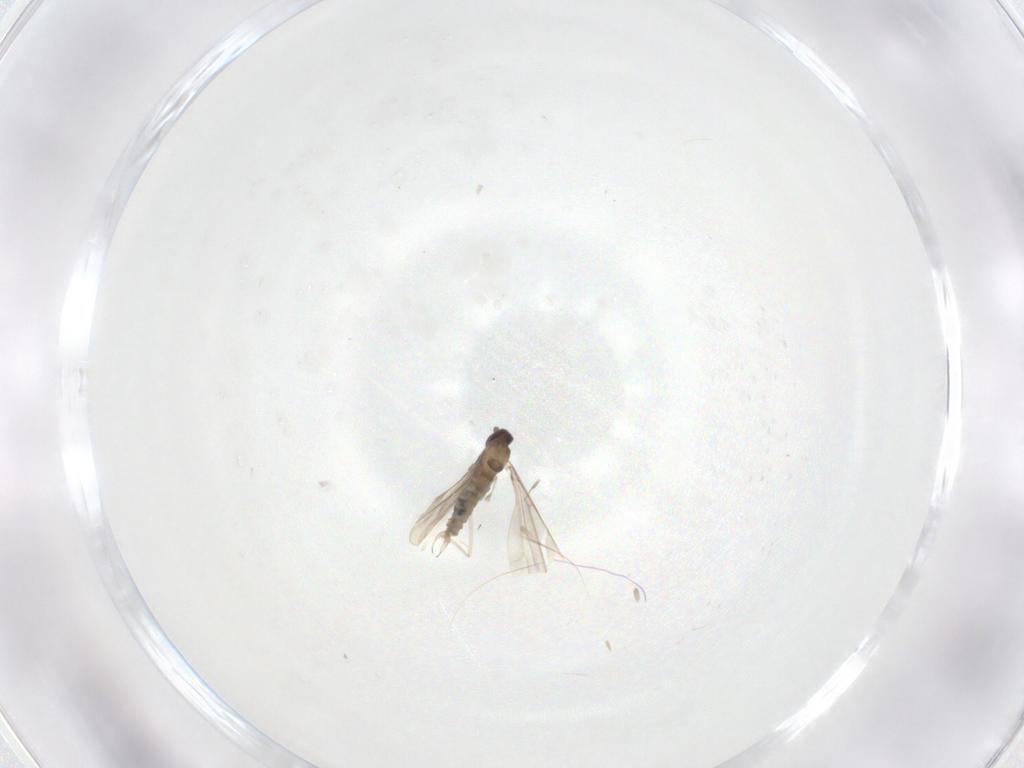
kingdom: Animalia
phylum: Arthropoda
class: Insecta
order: Diptera
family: Cecidomyiidae
